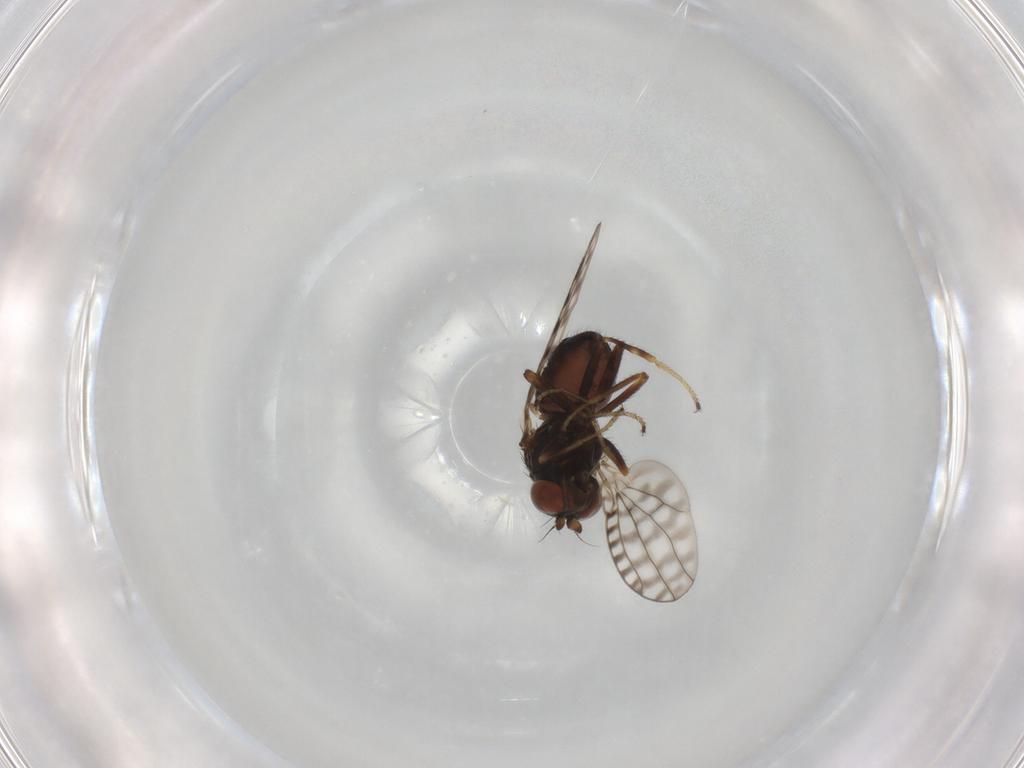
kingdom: Animalia
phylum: Arthropoda
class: Insecta
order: Diptera
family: Ephydridae
